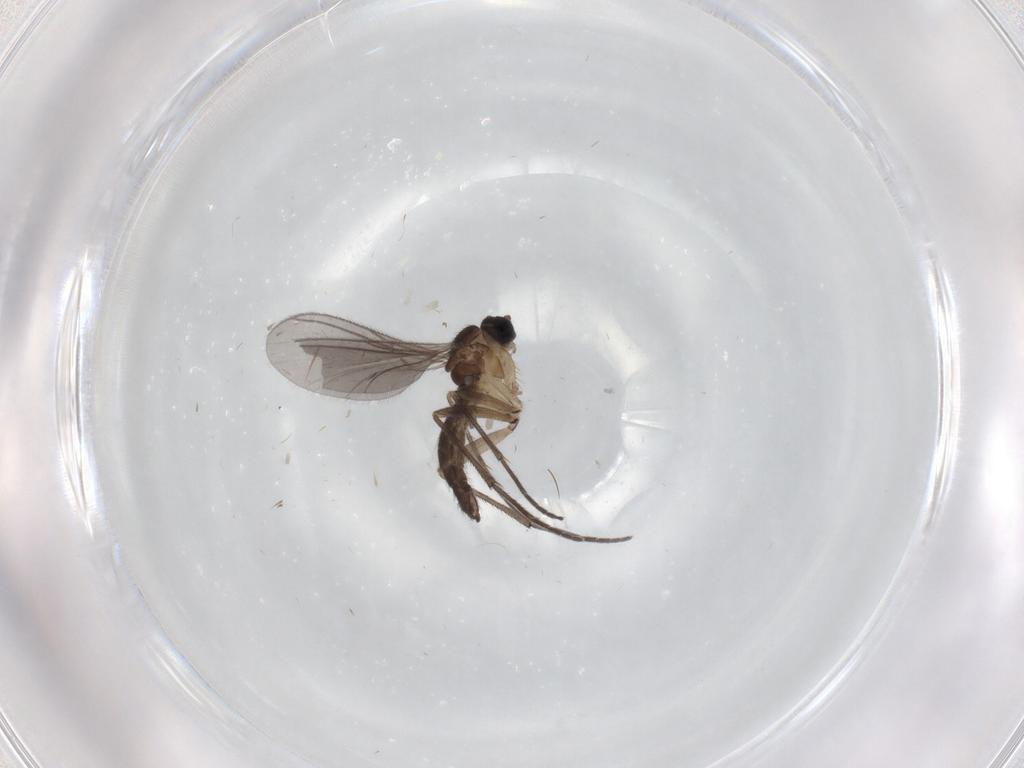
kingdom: Animalia
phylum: Arthropoda
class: Insecta
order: Diptera
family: Sciaridae
